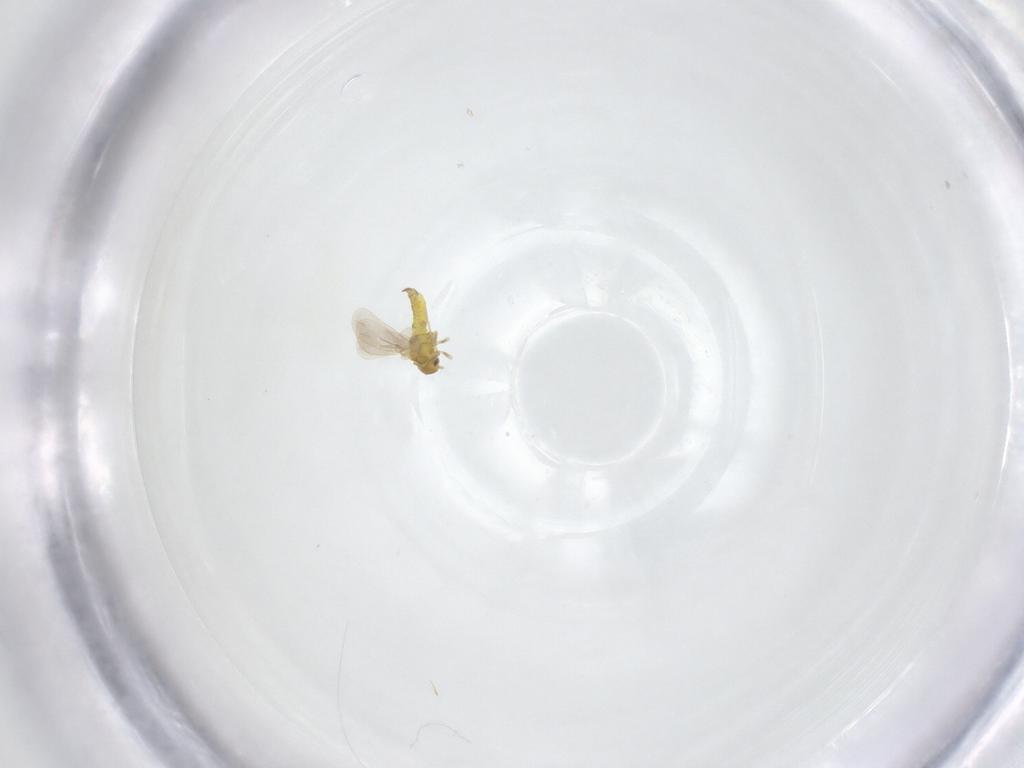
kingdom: Animalia
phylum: Arthropoda
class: Insecta
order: Hemiptera
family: Aleyrodidae
